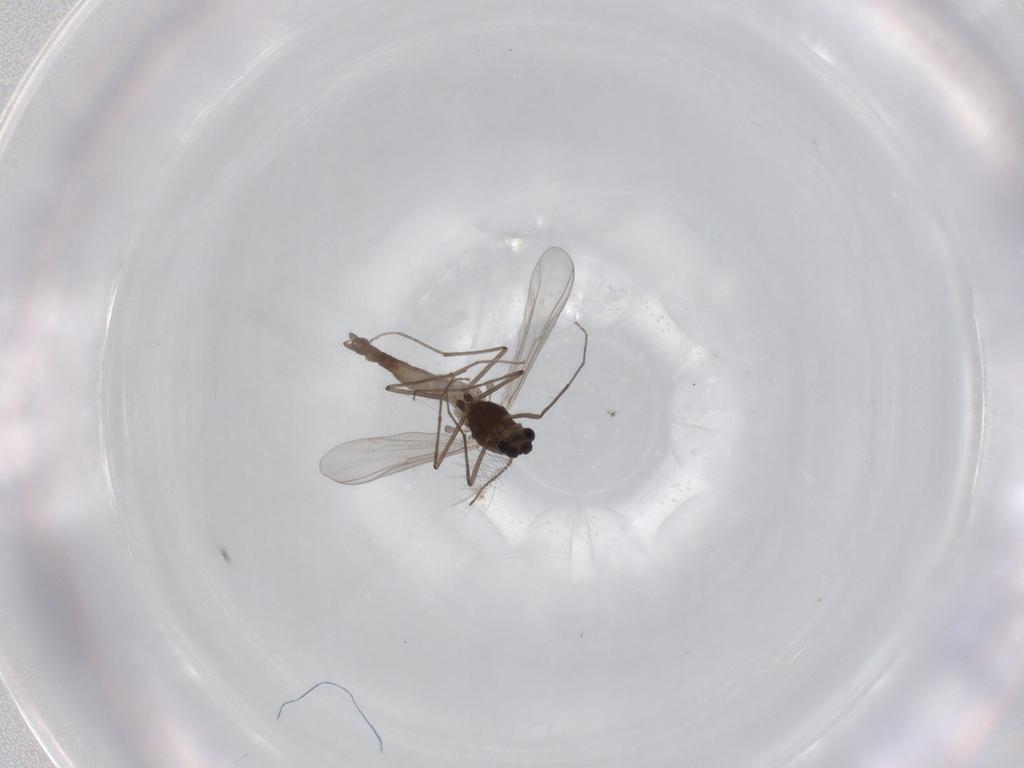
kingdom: Animalia
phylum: Arthropoda
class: Insecta
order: Diptera
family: Chironomidae
